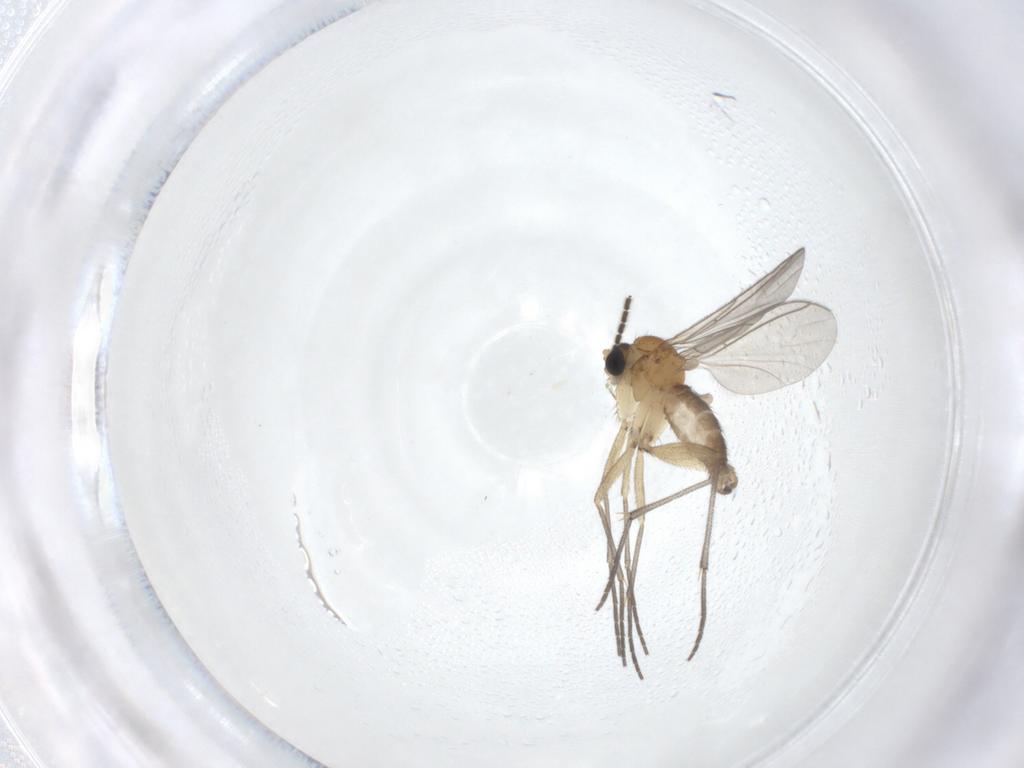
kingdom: Animalia
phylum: Arthropoda
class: Insecta
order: Diptera
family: Sciaridae
